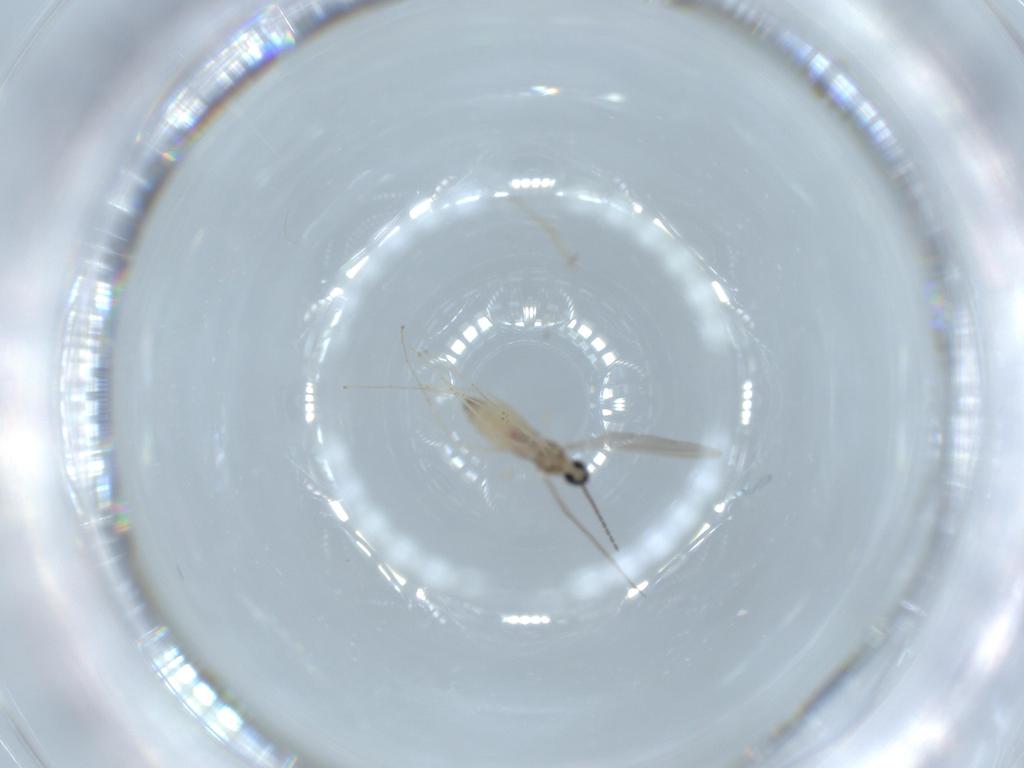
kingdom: Animalia
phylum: Arthropoda
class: Insecta
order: Diptera
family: Cecidomyiidae
